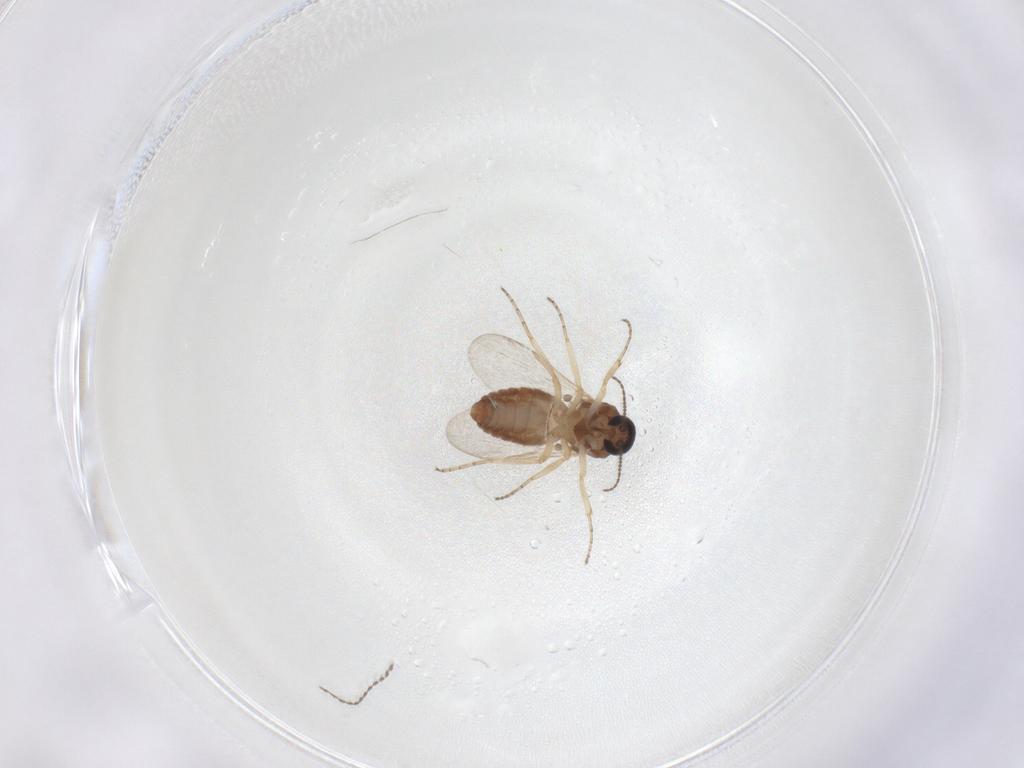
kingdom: Animalia
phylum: Arthropoda
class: Insecta
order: Diptera
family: Ceratopogonidae
